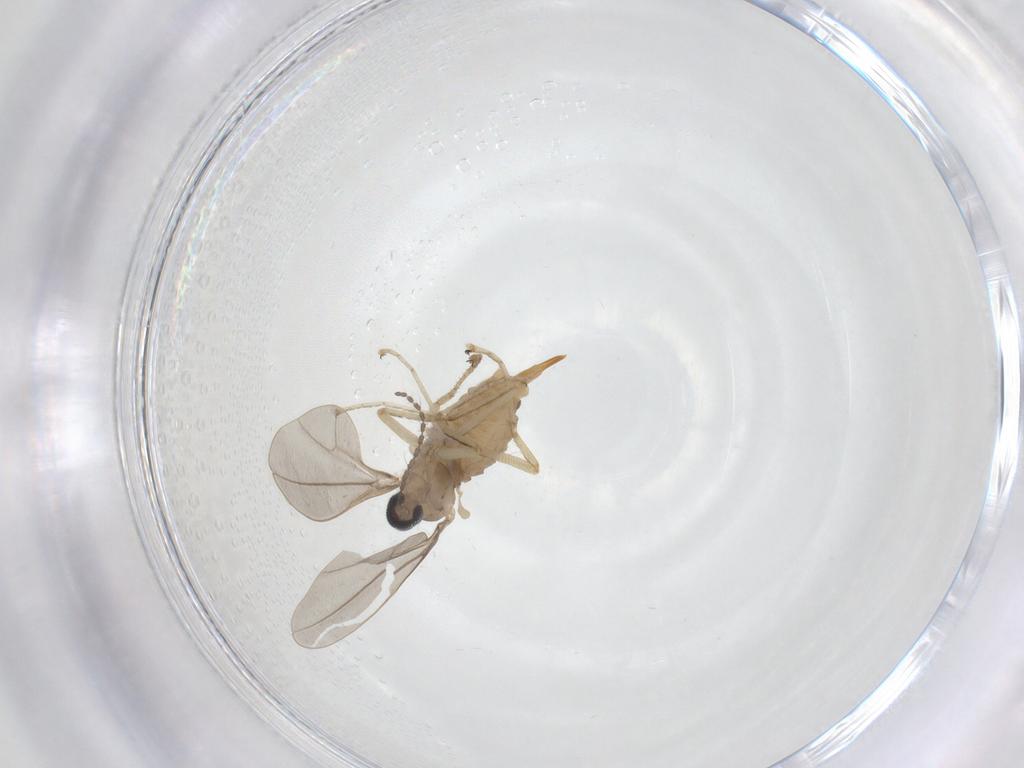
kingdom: Animalia
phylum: Arthropoda
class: Insecta
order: Diptera
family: Cecidomyiidae
